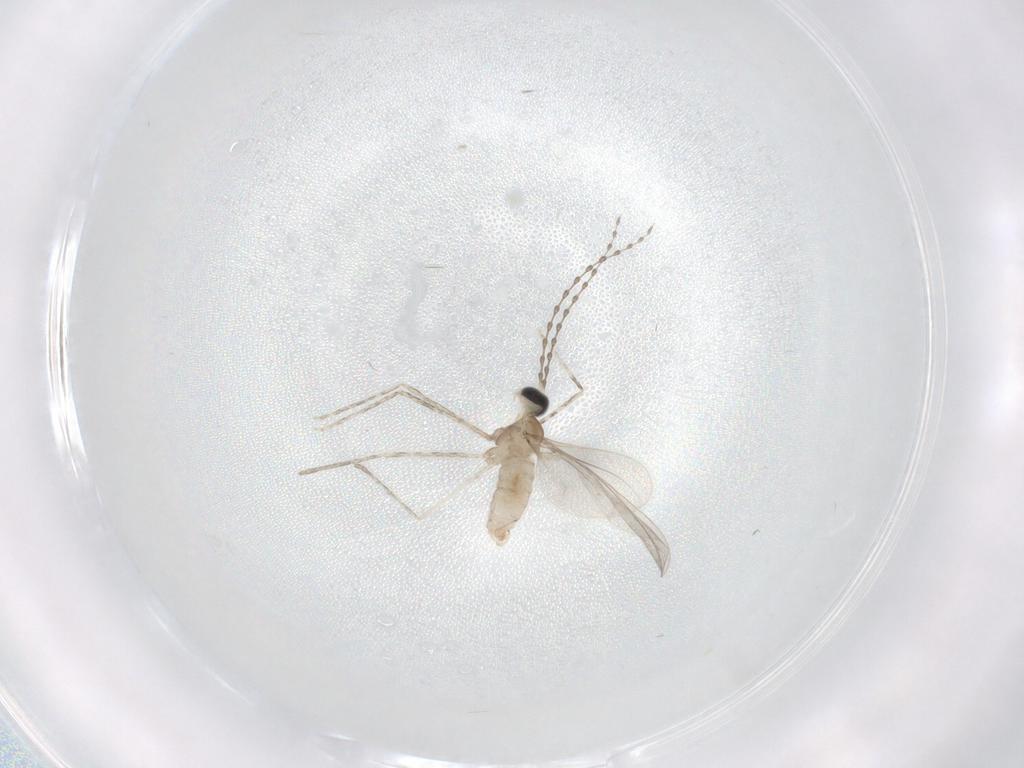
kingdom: Animalia
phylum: Arthropoda
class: Insecta
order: Diptera
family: Cecidomyiidae
